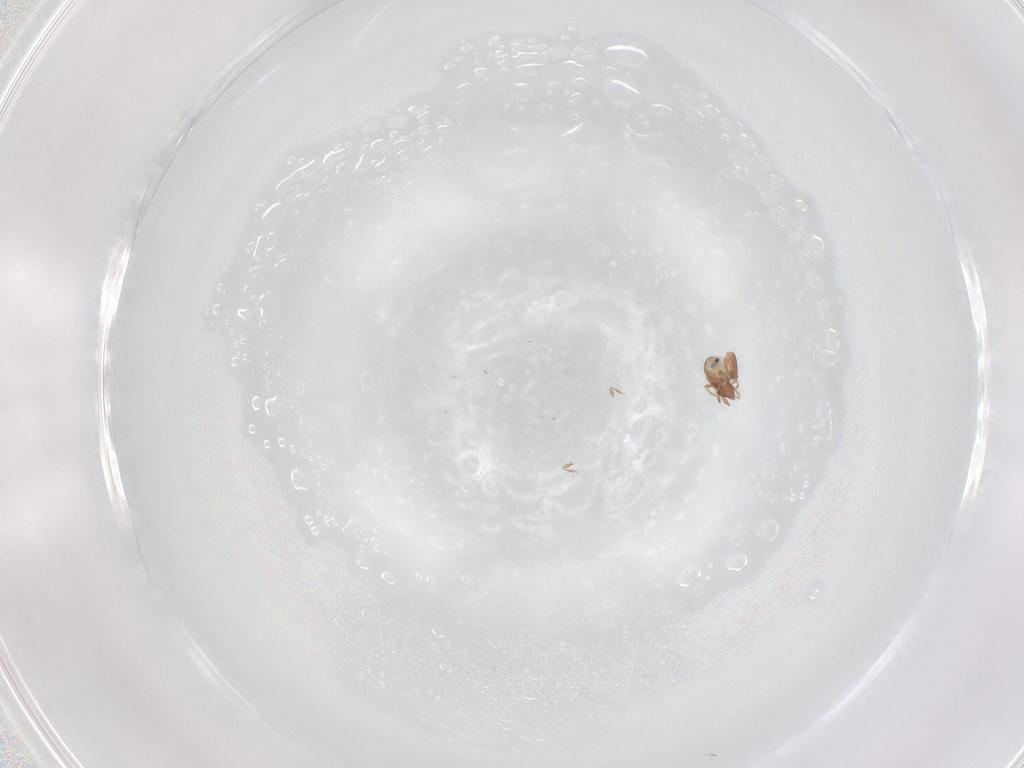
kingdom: Animalia
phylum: Arthropoda
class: Arachnida
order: Sarcoptiformes
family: Oribatulidae
